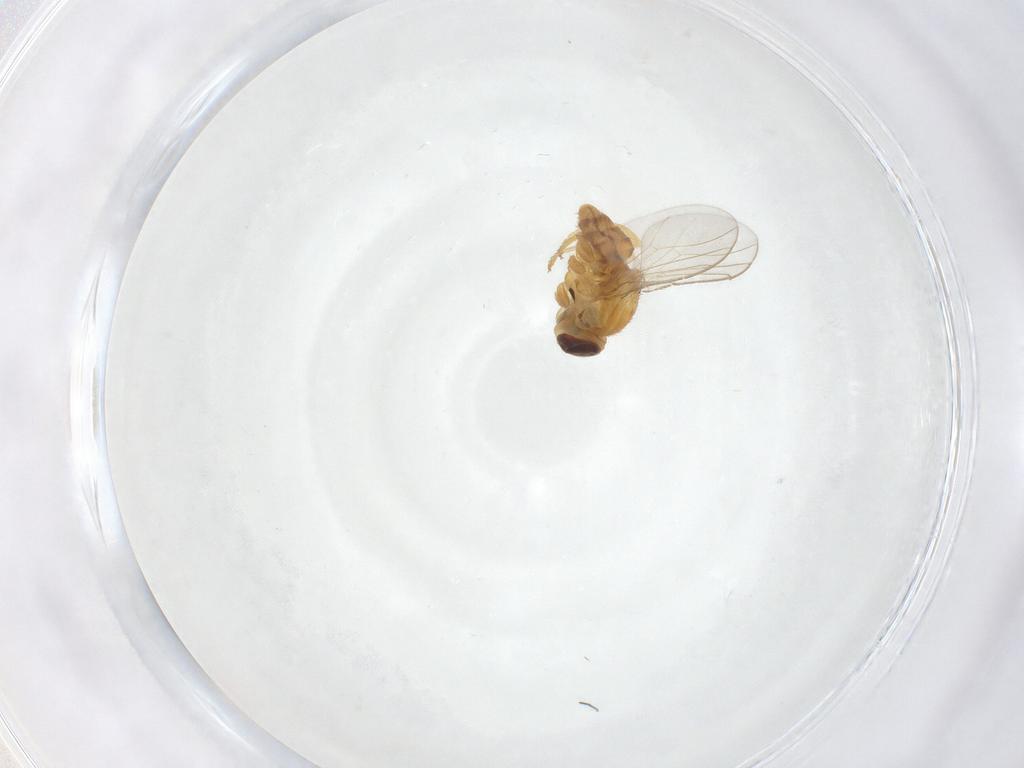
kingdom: Animalia
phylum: Arthropoda
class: Insecta
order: Diptera
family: Chloropidae
